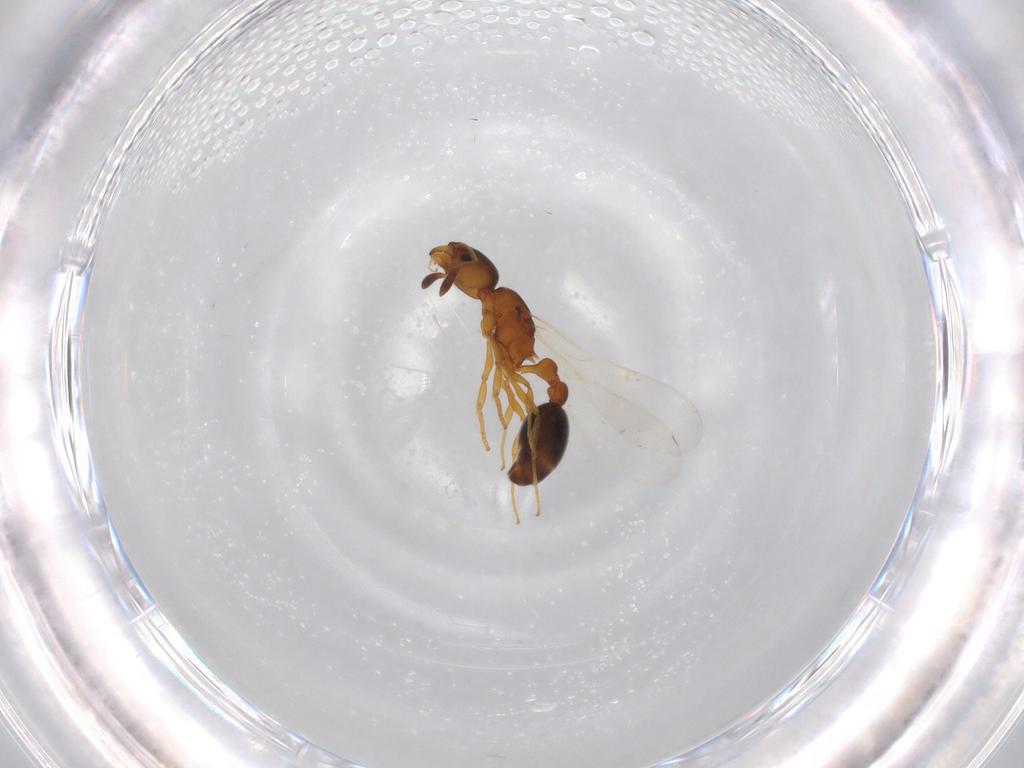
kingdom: Animalia
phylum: Arthropoda
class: Insecta
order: Hymenoptera
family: Formicidae
